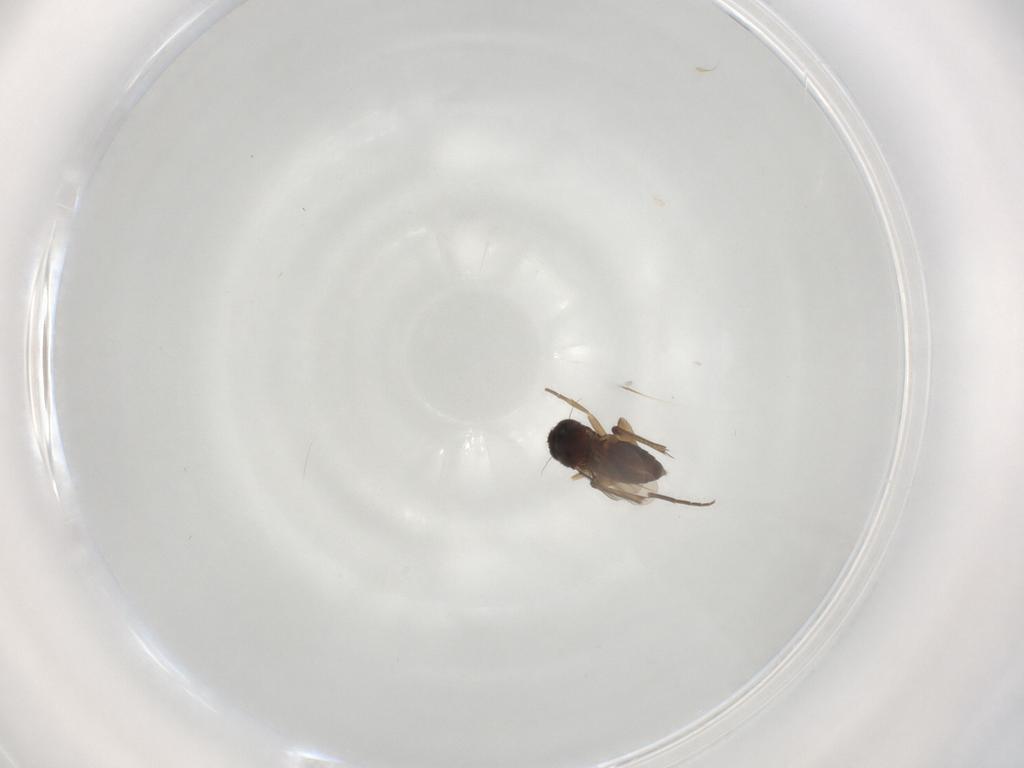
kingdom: Animalia
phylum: Arthropoda
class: Insecta
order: Diptera
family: Phoridae
